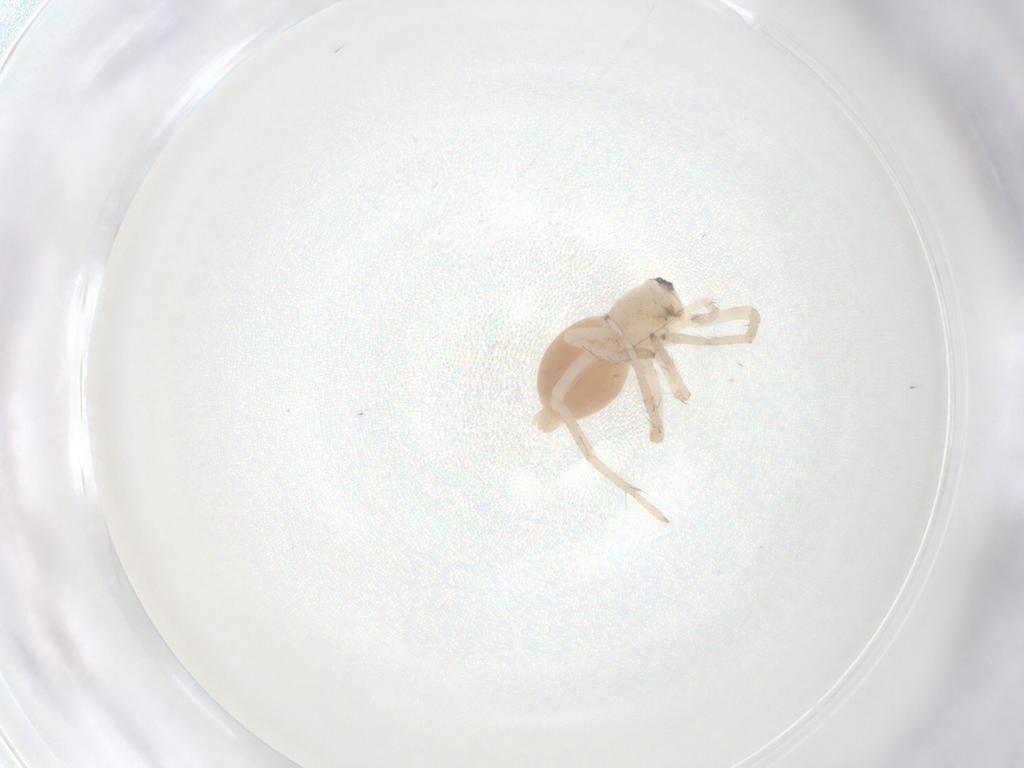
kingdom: Animalia
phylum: Arthropoda
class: Arachnida
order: Araneae
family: Anyphaenidae
